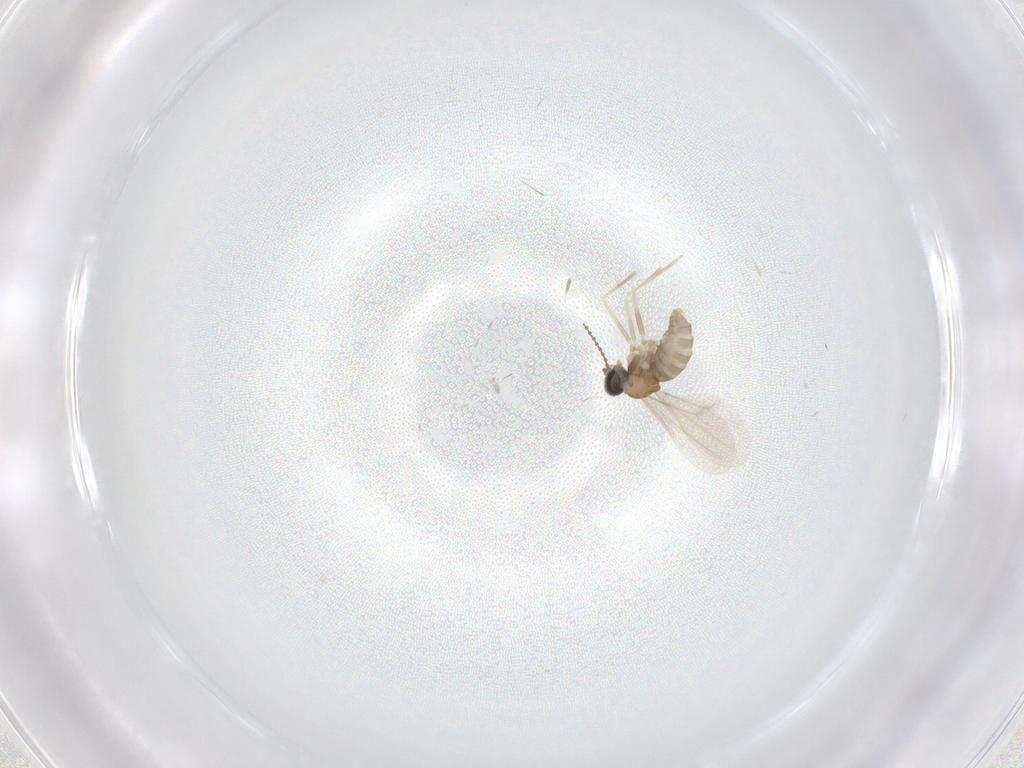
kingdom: Animalia
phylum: Arthropoda
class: Insecta
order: Diptera
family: Cecidomyiidae
